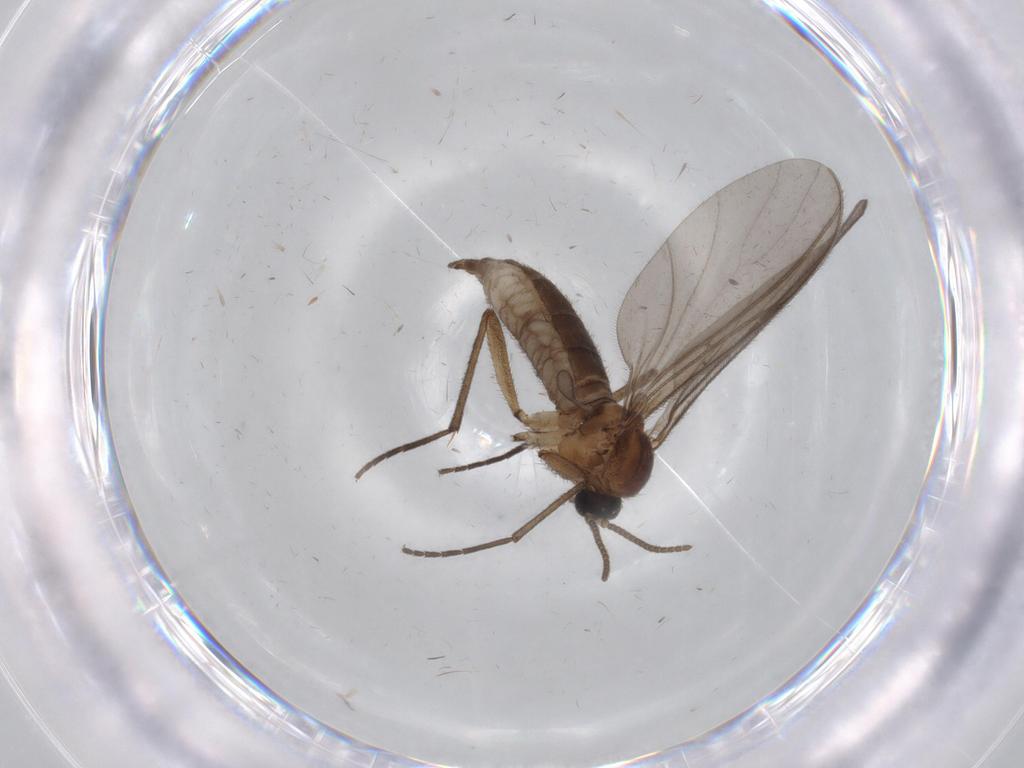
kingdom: Animalia
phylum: Arthropoda
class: Insecta
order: Diptera
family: Sciaridae
